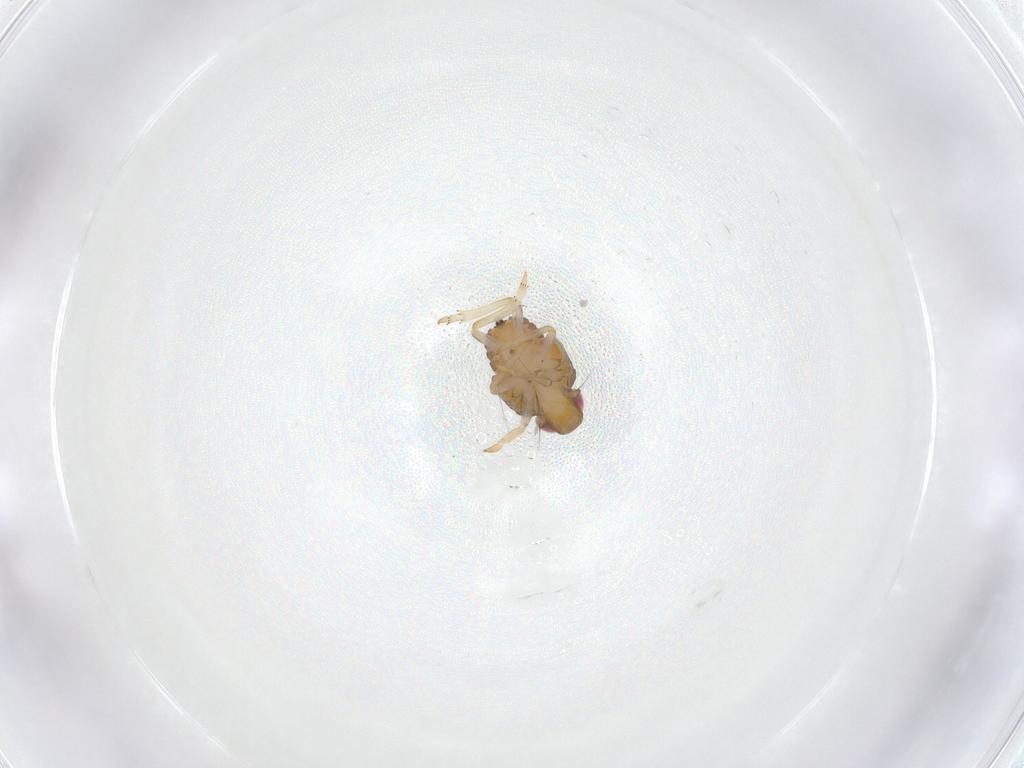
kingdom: Animalia
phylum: Arthropoda
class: Insecta
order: Hemiptera
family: Issidae
